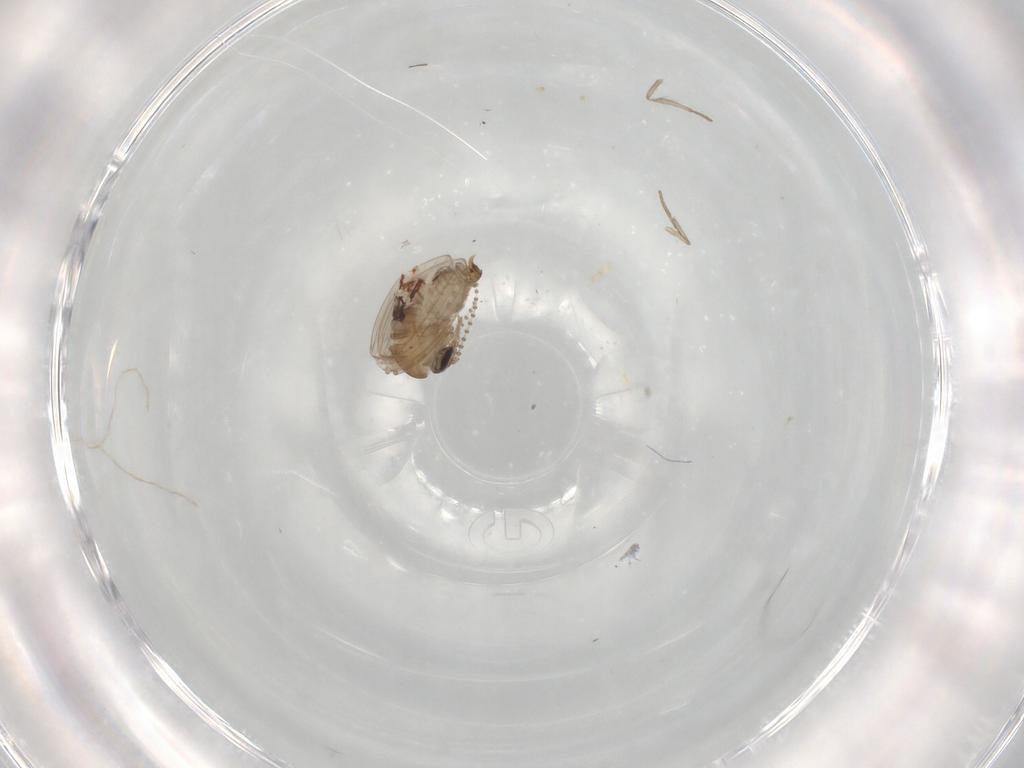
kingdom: Animalia
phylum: Arthropoda
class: Insecta
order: Diptera
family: Psychodidae
